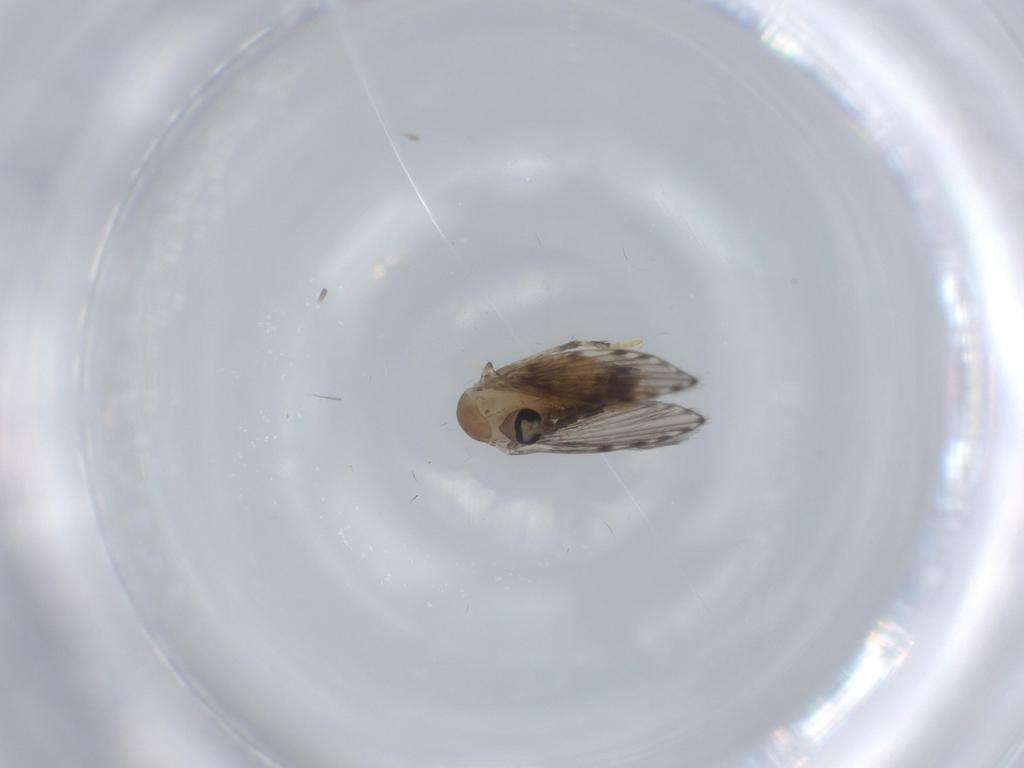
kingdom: Animalia
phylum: Arthropoda
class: Insecta
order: Diptera
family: Psychodidae
